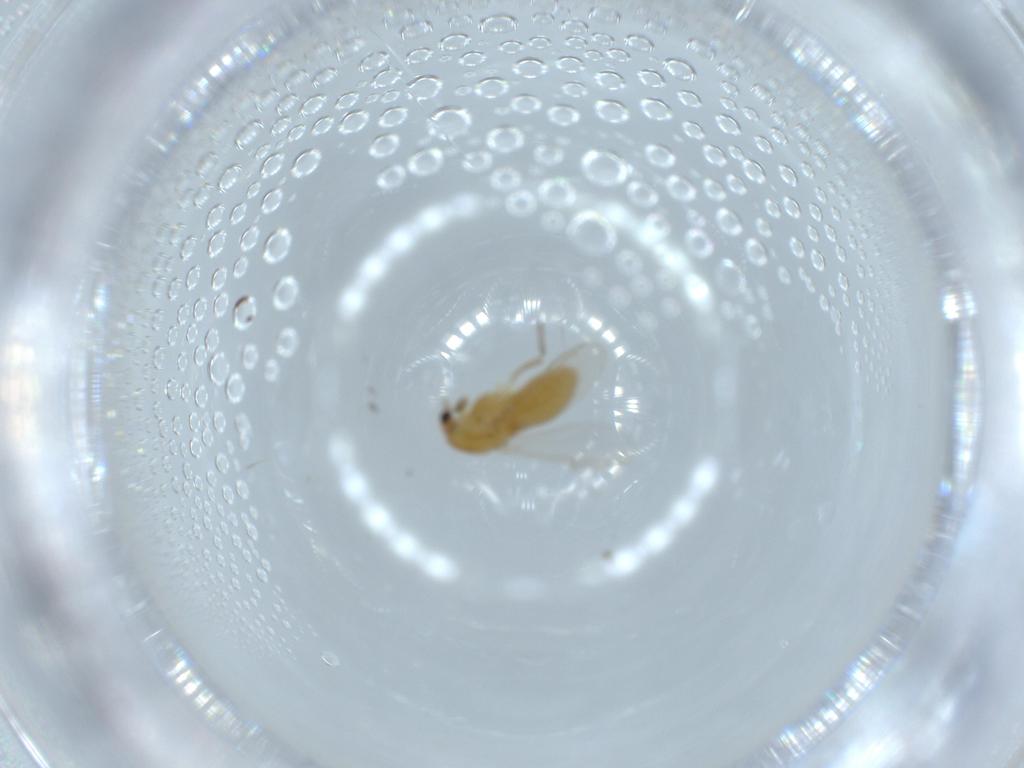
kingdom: Animalia
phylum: Arthropoda
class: Insecta
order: Diptera
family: Chironomidae
